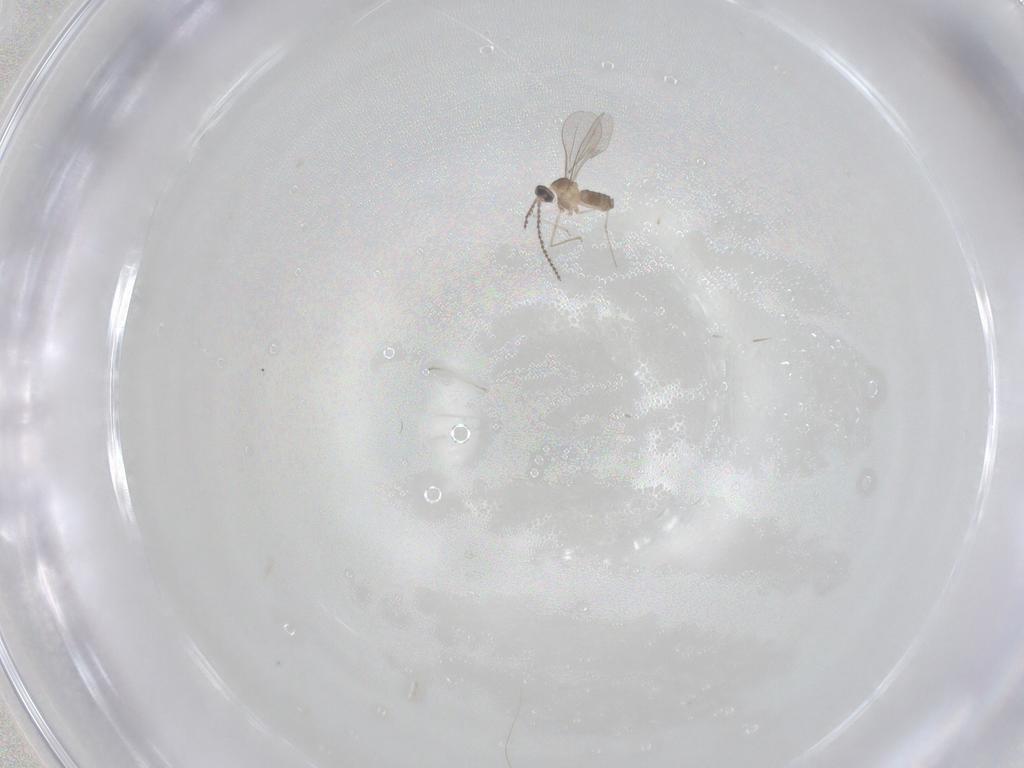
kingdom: Animalia
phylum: Arthropoda
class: Insecta
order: Diptera
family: Cecidomyiidae
